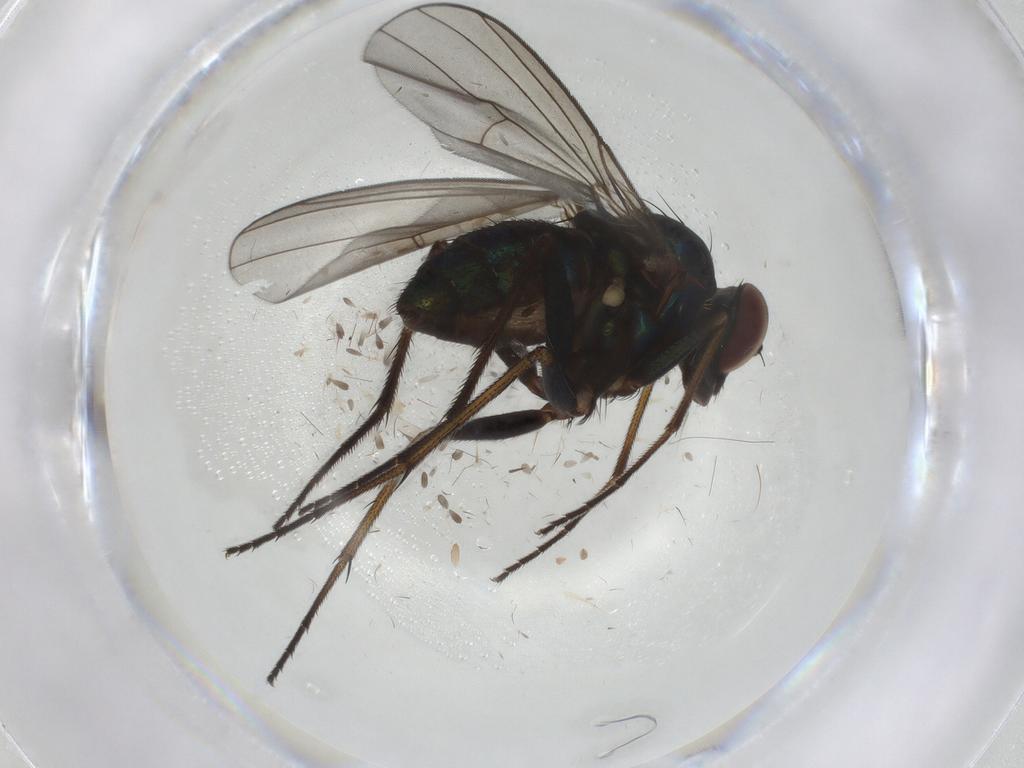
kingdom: Animalia
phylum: Arthropoda
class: Insecta
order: Diptera
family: Dolichopodidae
